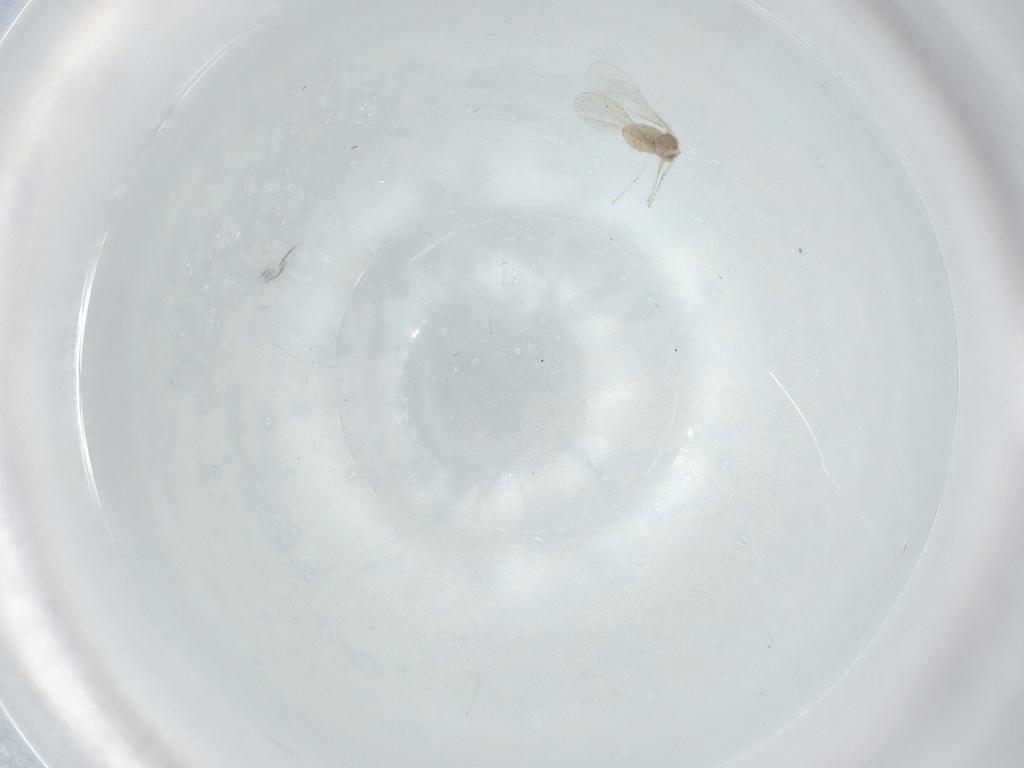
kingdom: Animalia
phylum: Arthropoda
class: Insecta
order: Diptera
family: Cecidomyiidae
